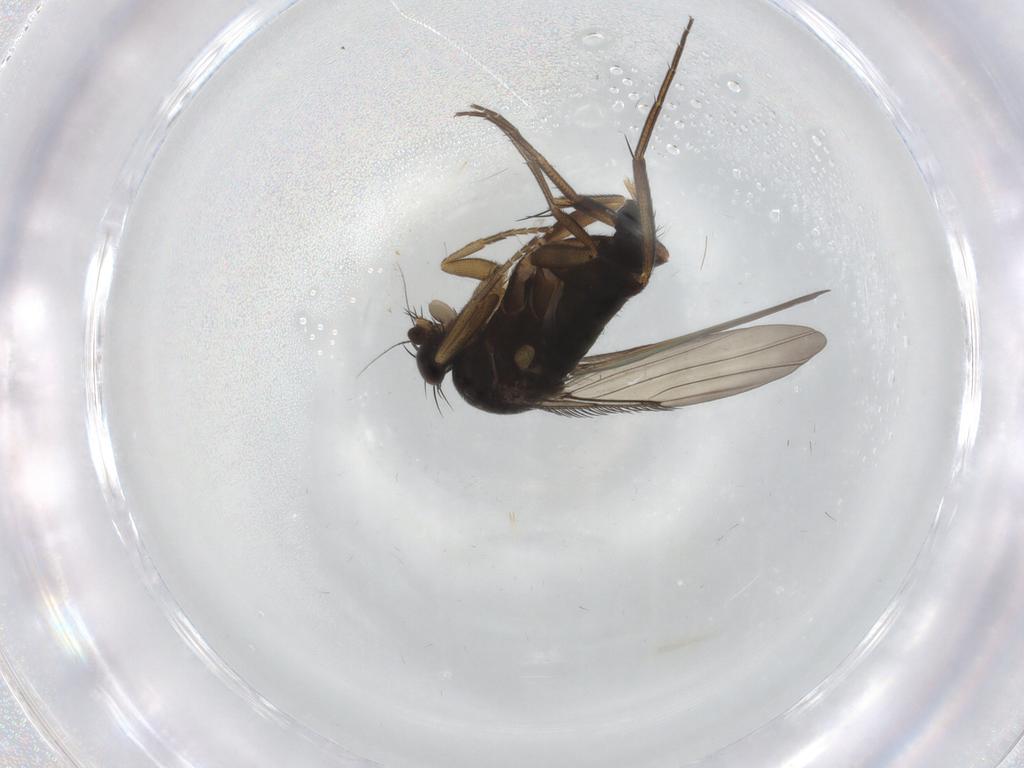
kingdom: Animalia
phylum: Arthropoda
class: Insecta
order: Diptera
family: Phoridae
